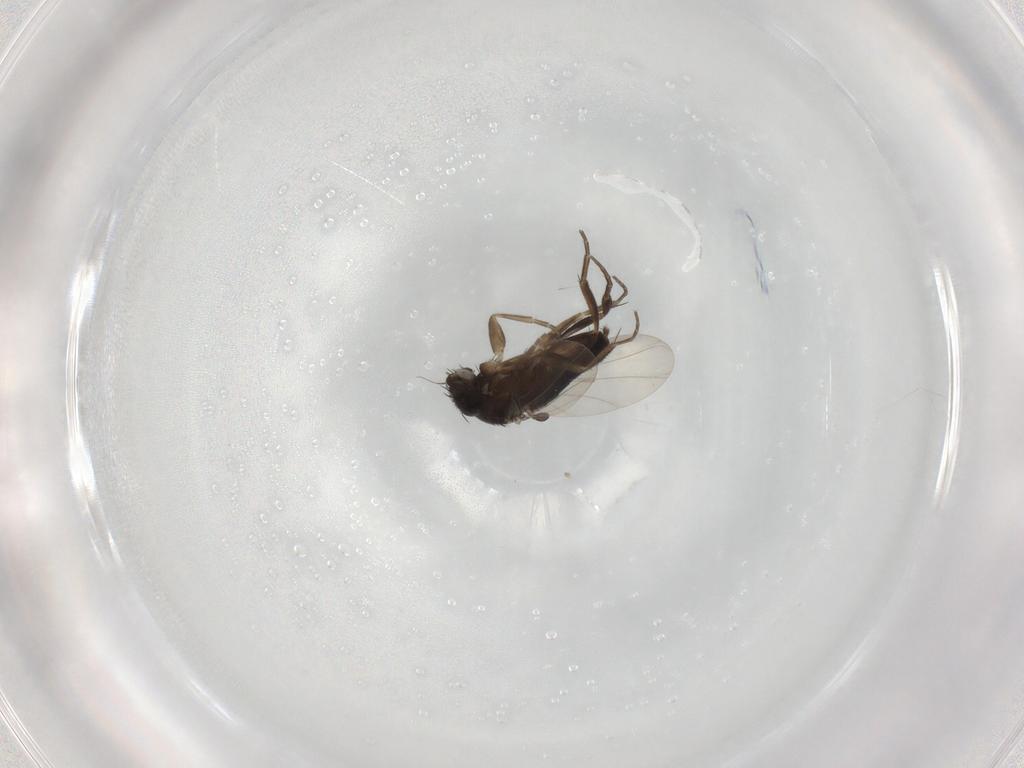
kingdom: Animalia
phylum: Arthropoda
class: Insecta
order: Diptera
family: Phoridae
